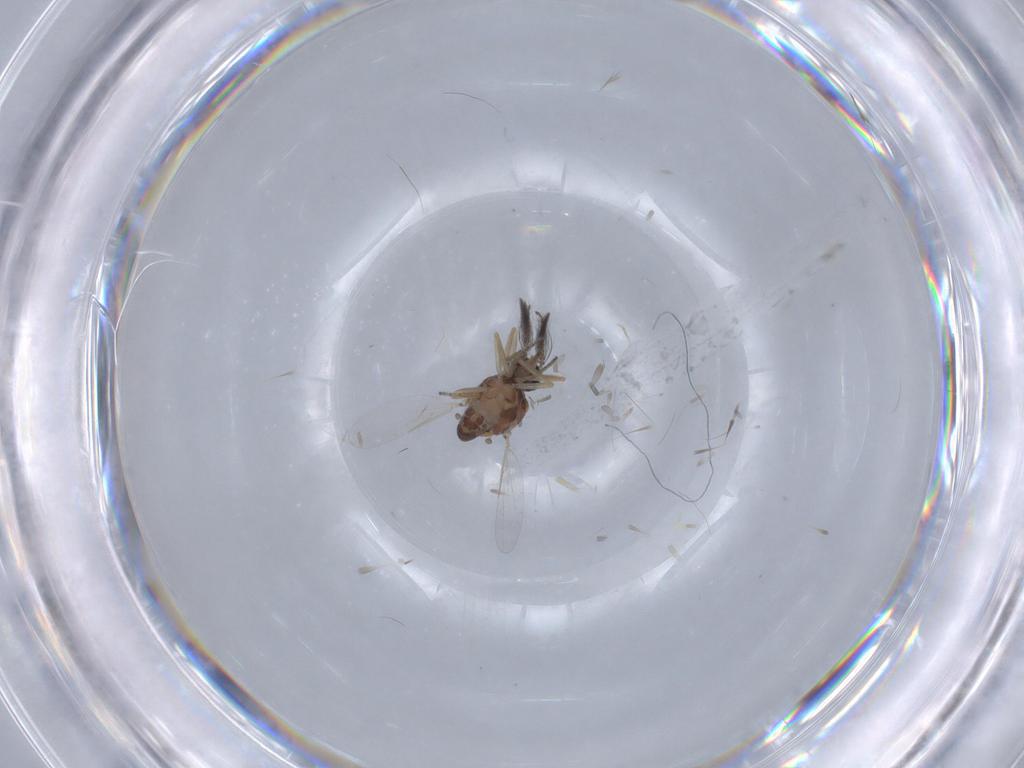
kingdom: Animalia
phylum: Arthropoda
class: Insecta
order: Diptera
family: Ceratopogonidae
